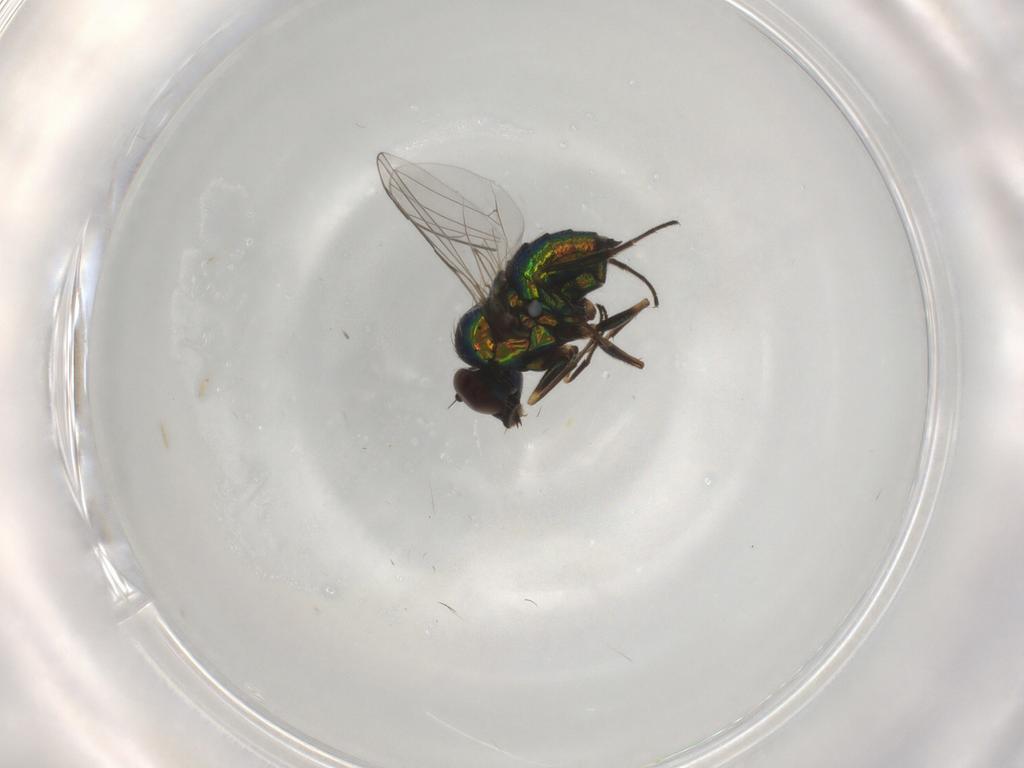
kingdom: Animalia
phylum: Arthropoda
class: Insecta
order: Diptera
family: Dolichopodidae
